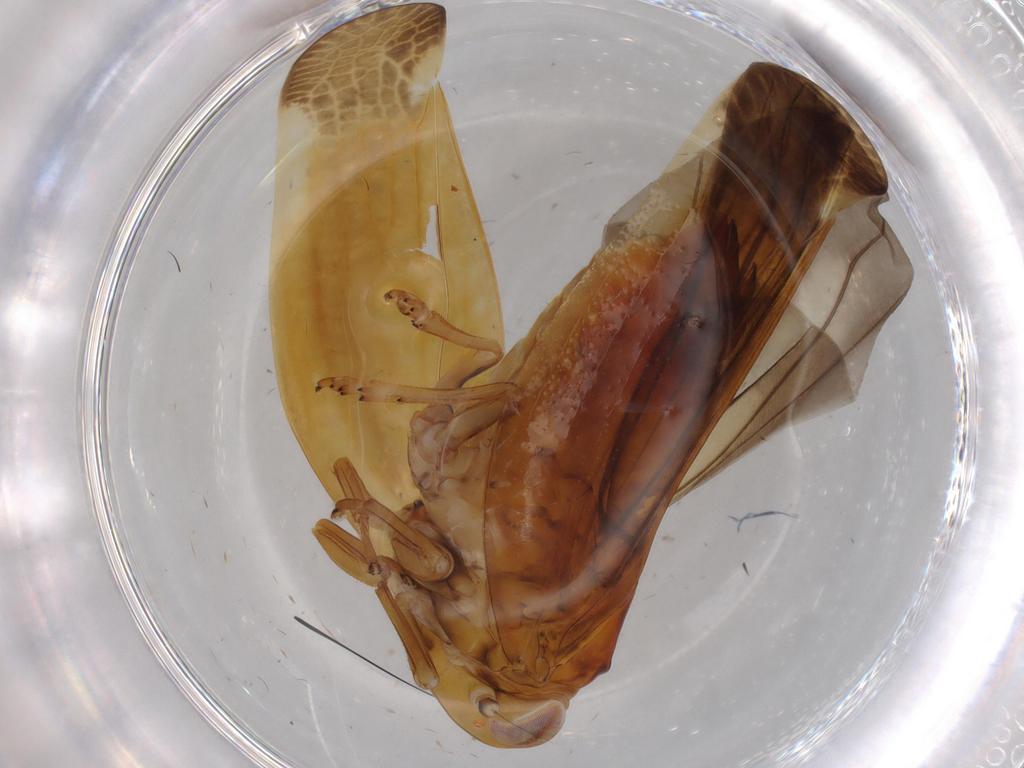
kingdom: Animalia
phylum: Arthropoda
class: Insecta
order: Hemiptera
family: Nogodinidae
